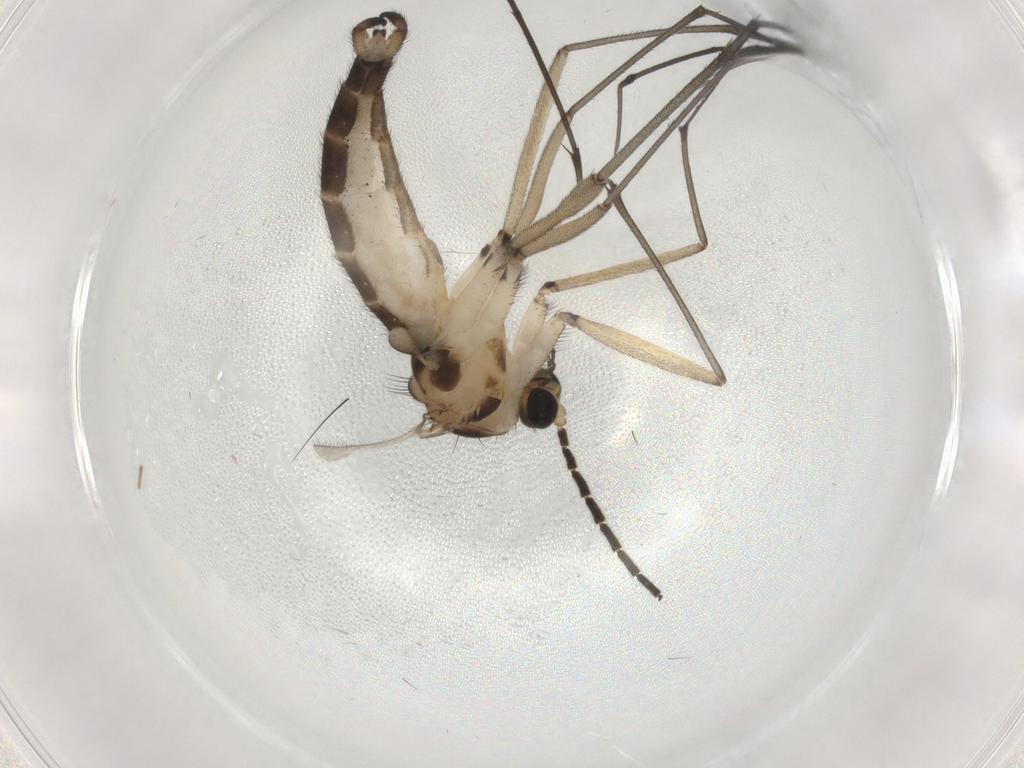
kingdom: Animalia
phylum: Arthropoda
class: Insecta
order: Diptera
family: Sciaridae
